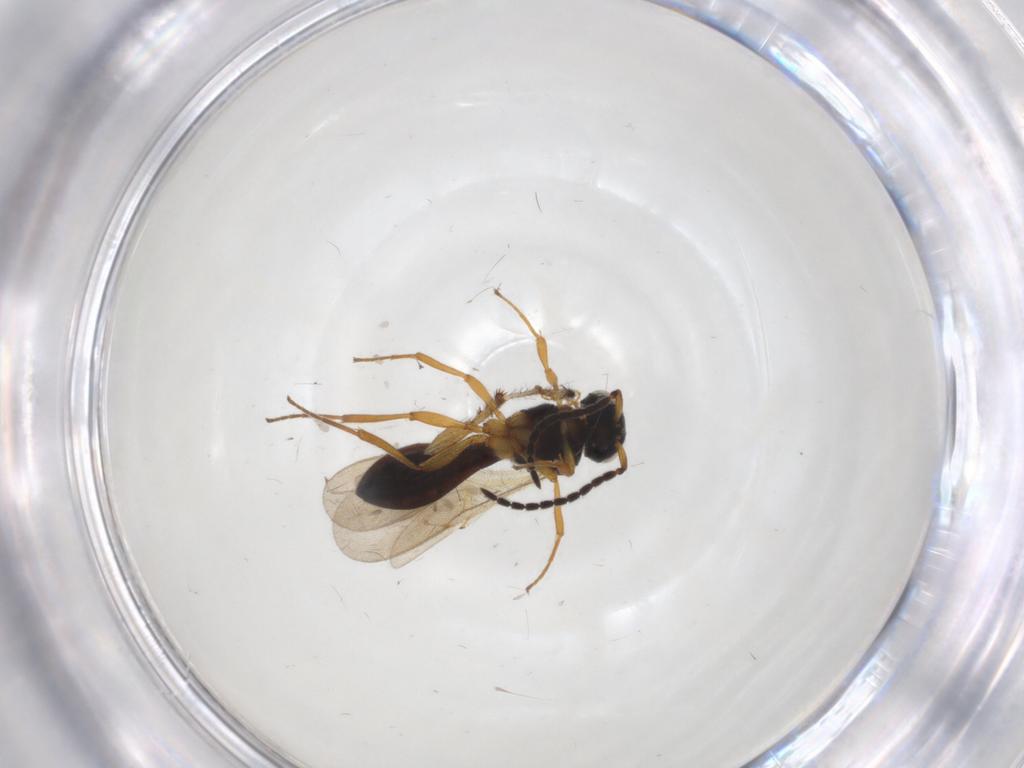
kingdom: Animalia
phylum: Arthropoda
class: Insecta
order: Hymenoptera
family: Scelionidae
